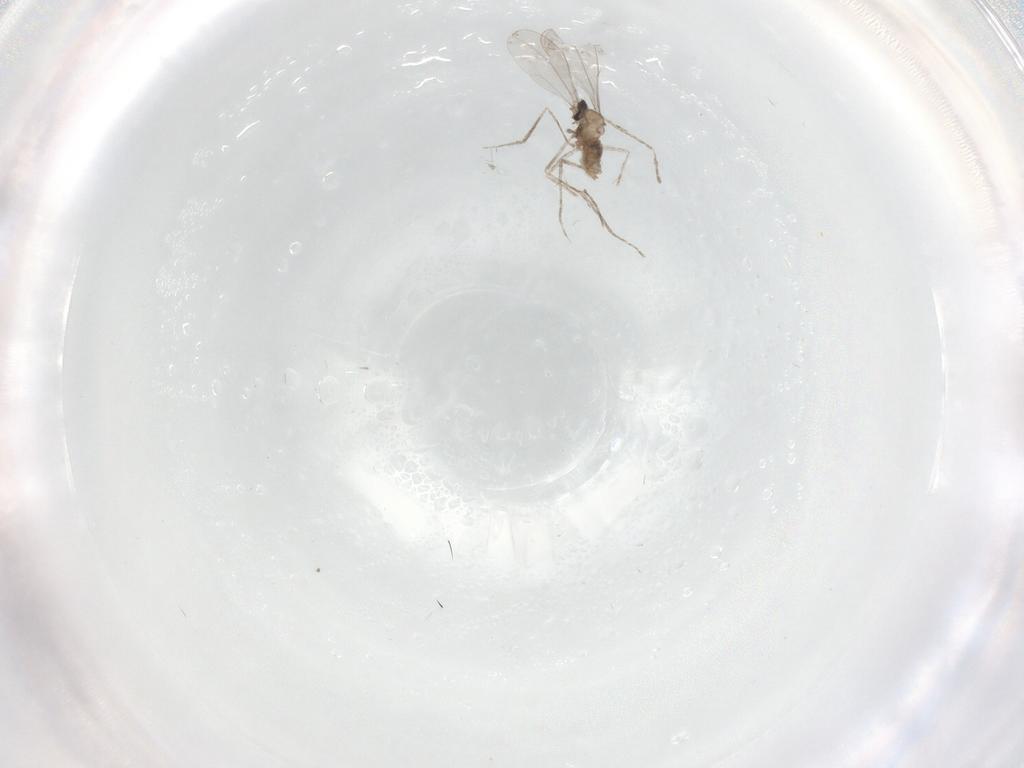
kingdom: Animalia
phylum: Arthropoda
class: Insecta
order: Diptera
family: Cecidomyiidae
